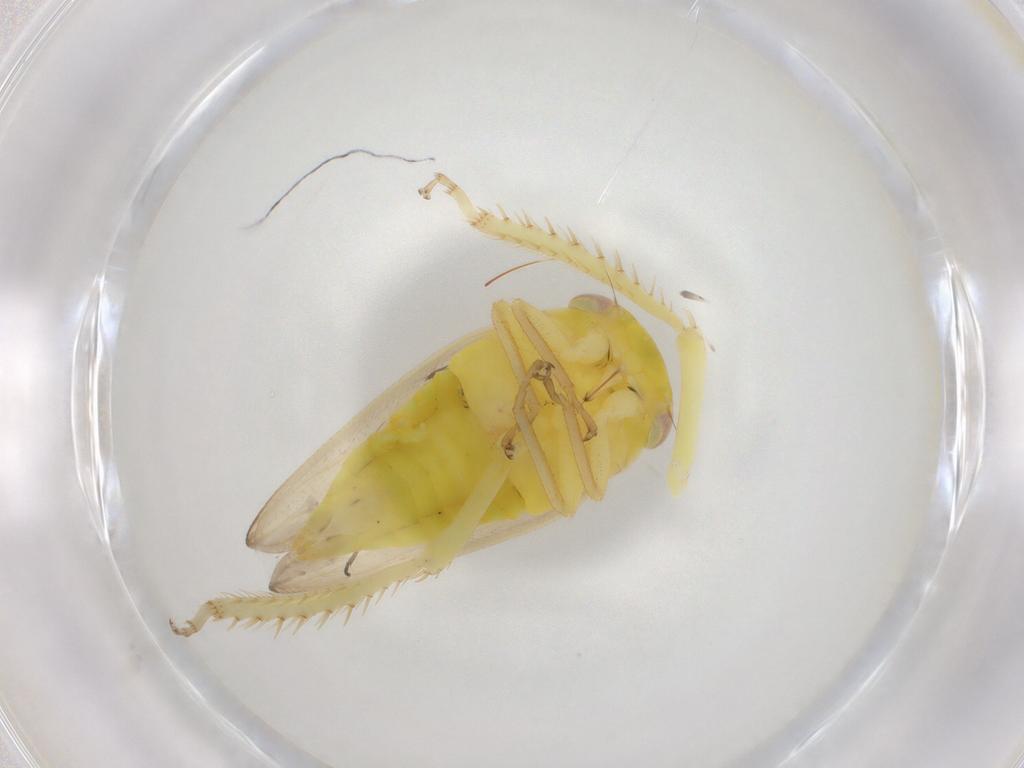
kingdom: Animalia
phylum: Arthropoda
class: Insecta
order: Hemiptera
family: Cicadellidae
